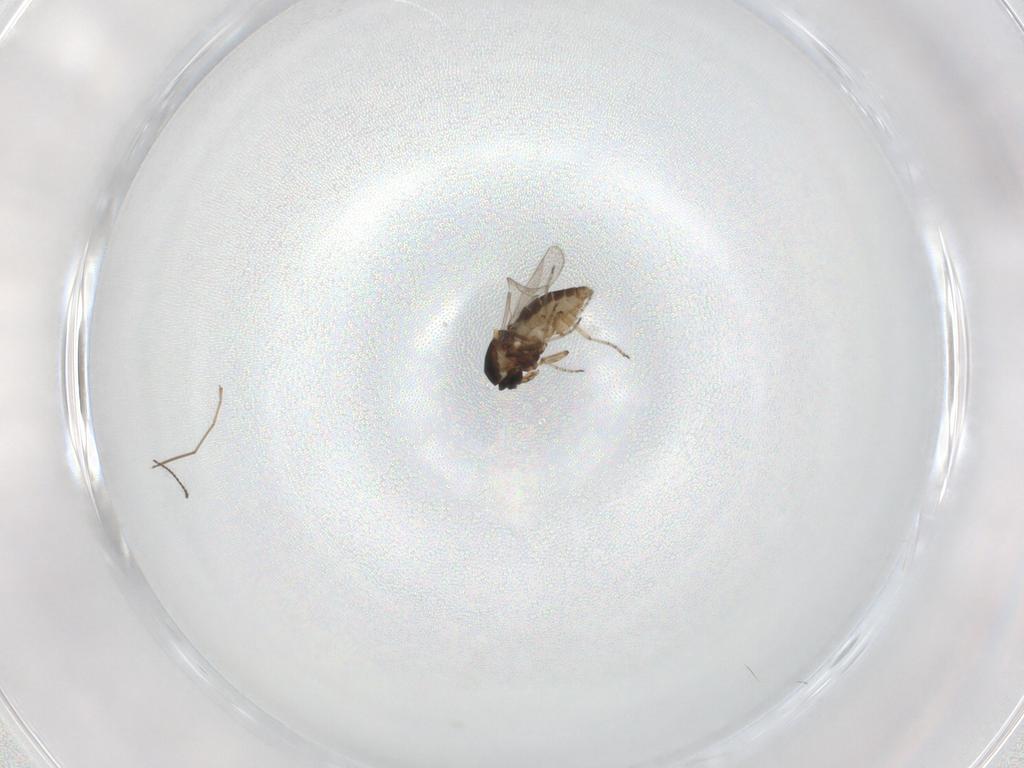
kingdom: Animalia
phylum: Arthropoda
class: Insecta
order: Diptera
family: Ceratopogonidae
